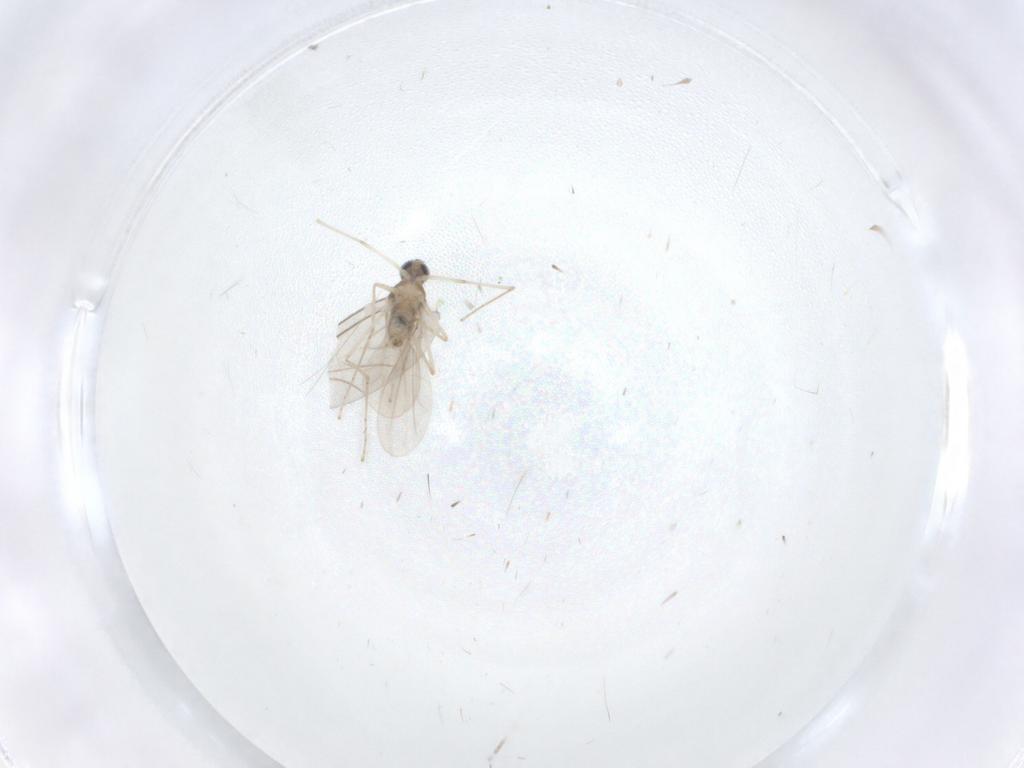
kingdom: Animalia
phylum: Arthropoda
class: Insecta
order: Diptera
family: Cecidomyiidae
